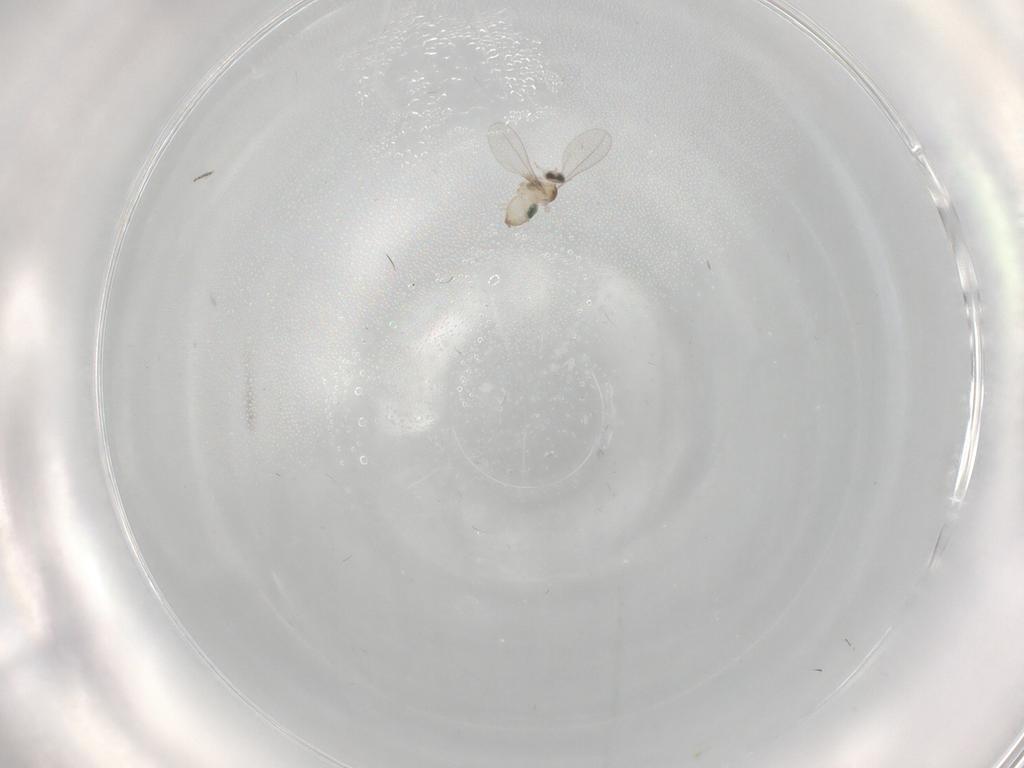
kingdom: Animalia
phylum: Arthropoda
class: Insecta
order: Diptera
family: Cecidomyiidae
